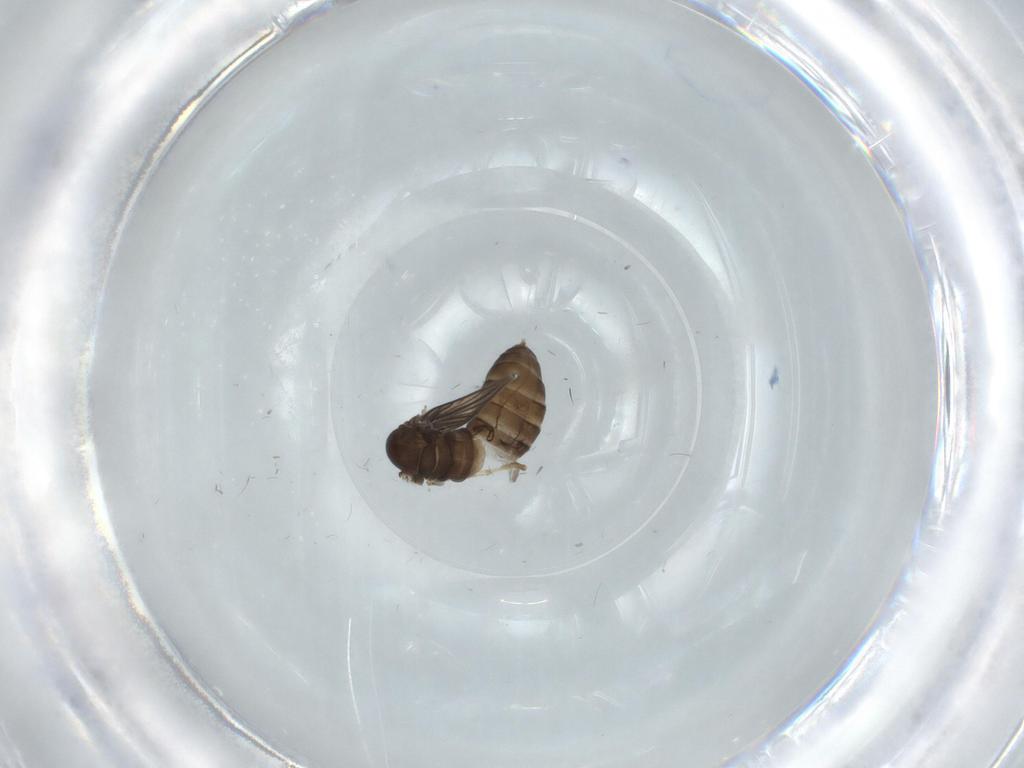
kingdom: Animalia
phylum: Arthropoda
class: Insecta
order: Diptera
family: Psychodidae
